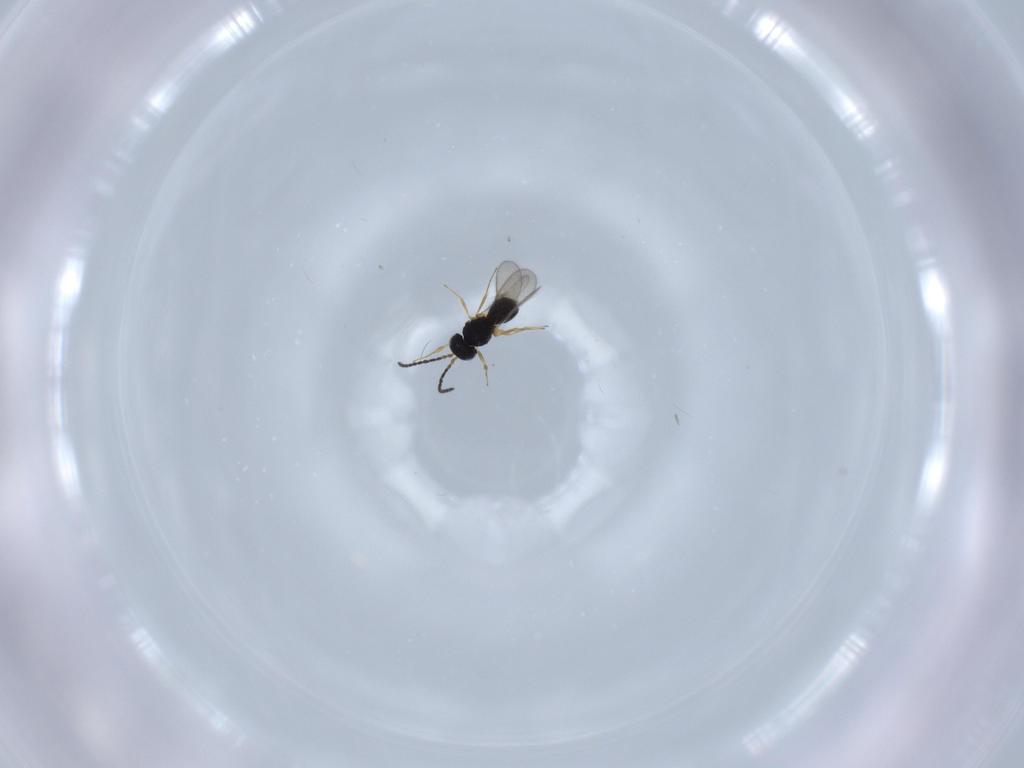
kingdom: Animalia
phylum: Arthropoda
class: Insecta
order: Hymenoptera
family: Scelionidae
